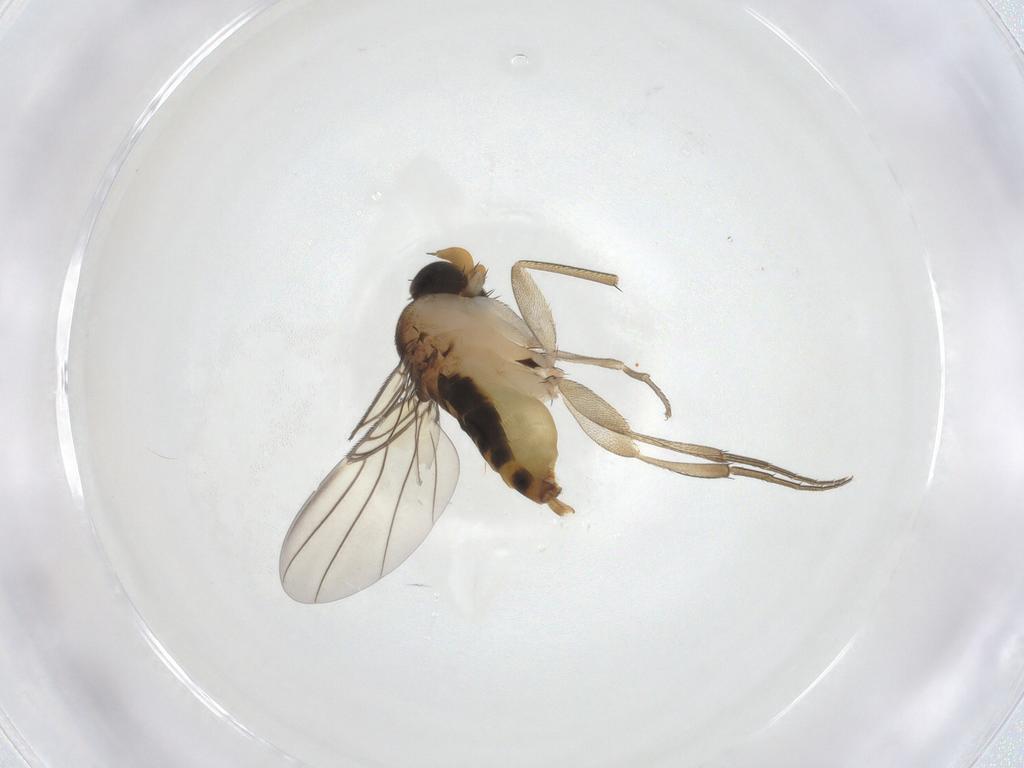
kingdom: Animalia
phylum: Arthropoda
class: Insecta
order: Diptera
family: Phoridae
